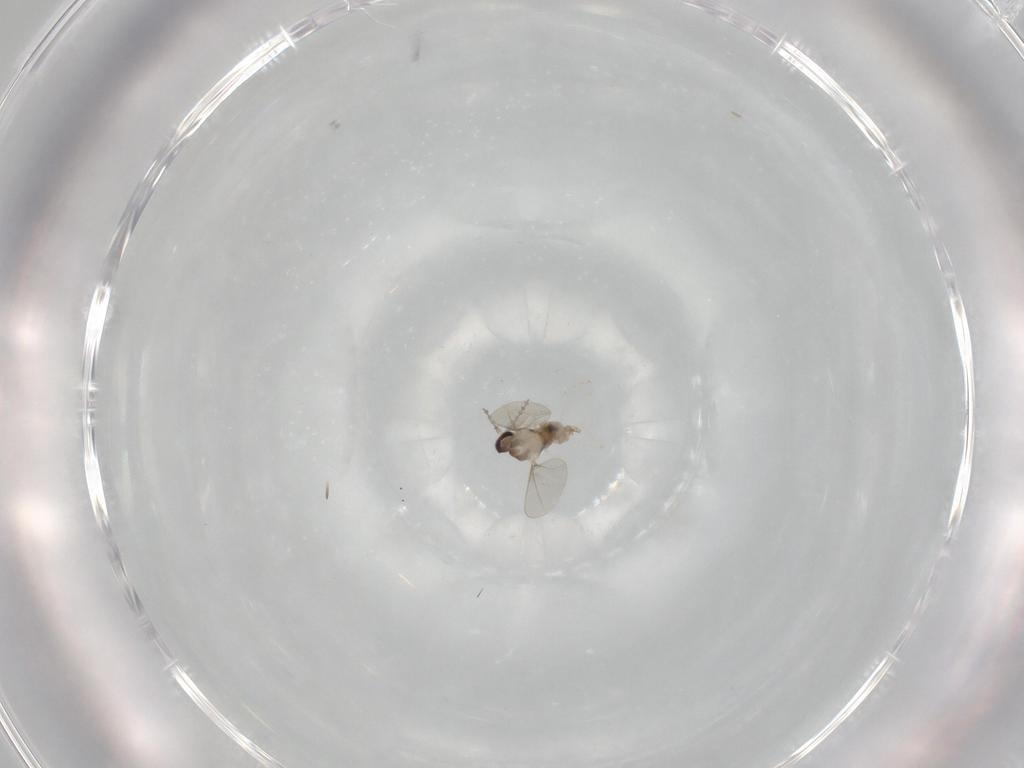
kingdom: Animalia
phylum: Arthropoda
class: Insecta
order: Diptera
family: Cecidomyiidae
